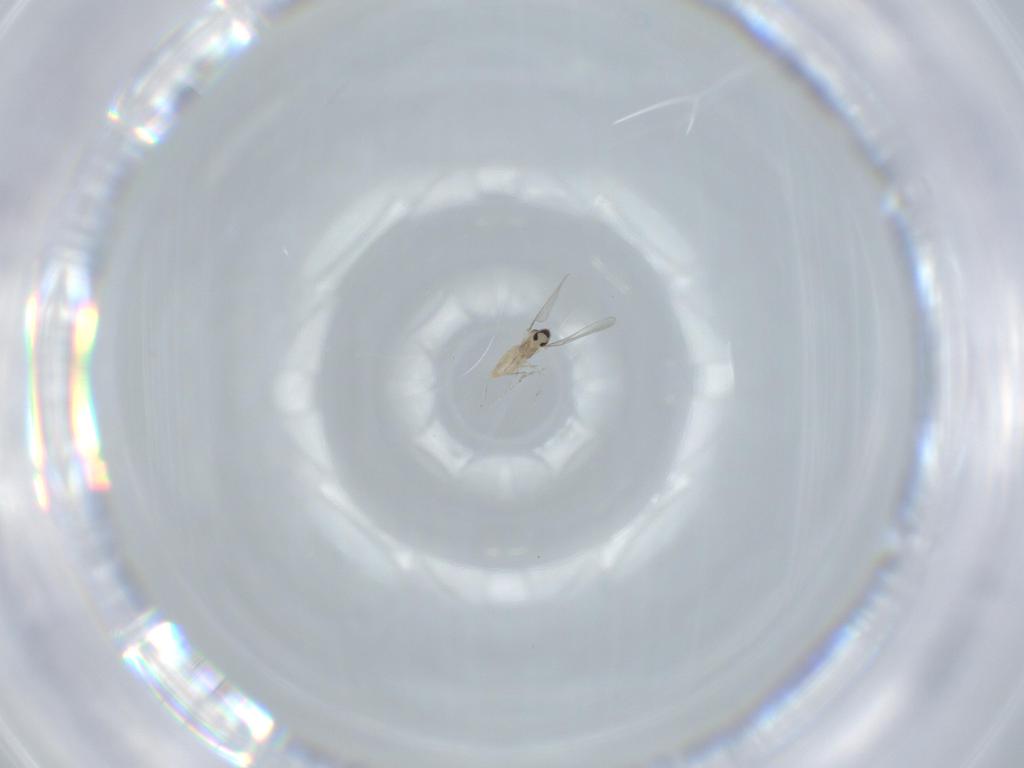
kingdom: Animalia
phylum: Arthropoda
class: Insecta
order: Diptera
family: Cecidomyiidae
